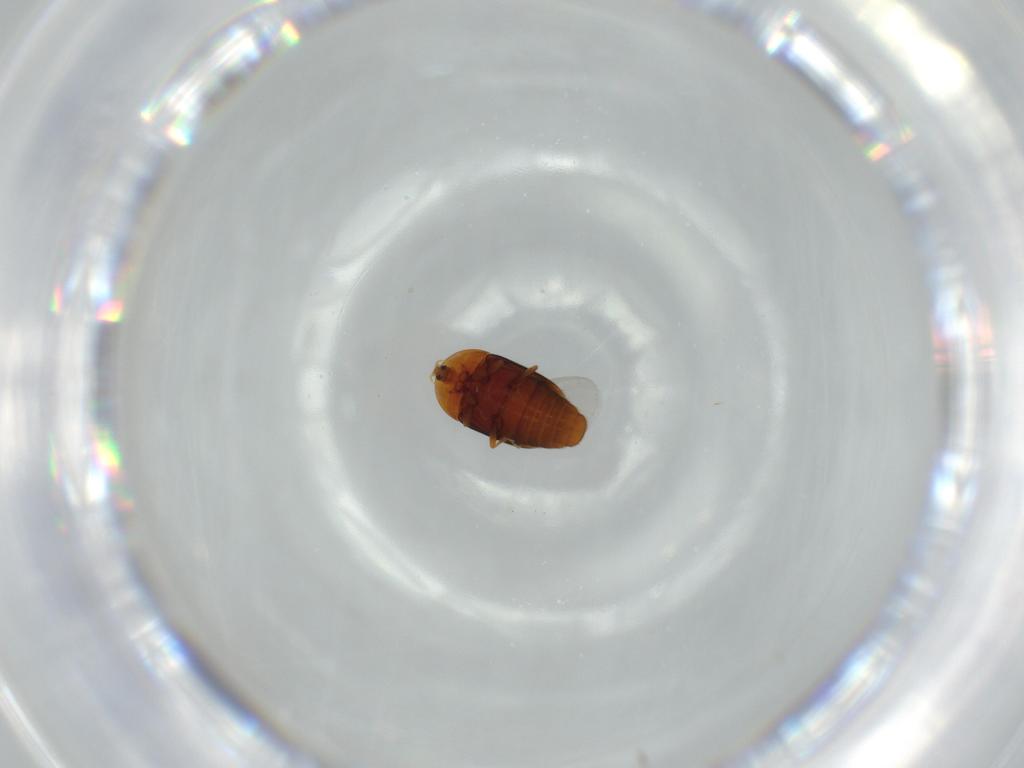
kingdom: Animalia
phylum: Arthropoda
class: Insecta
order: Coleoptera
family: Corylophidae
